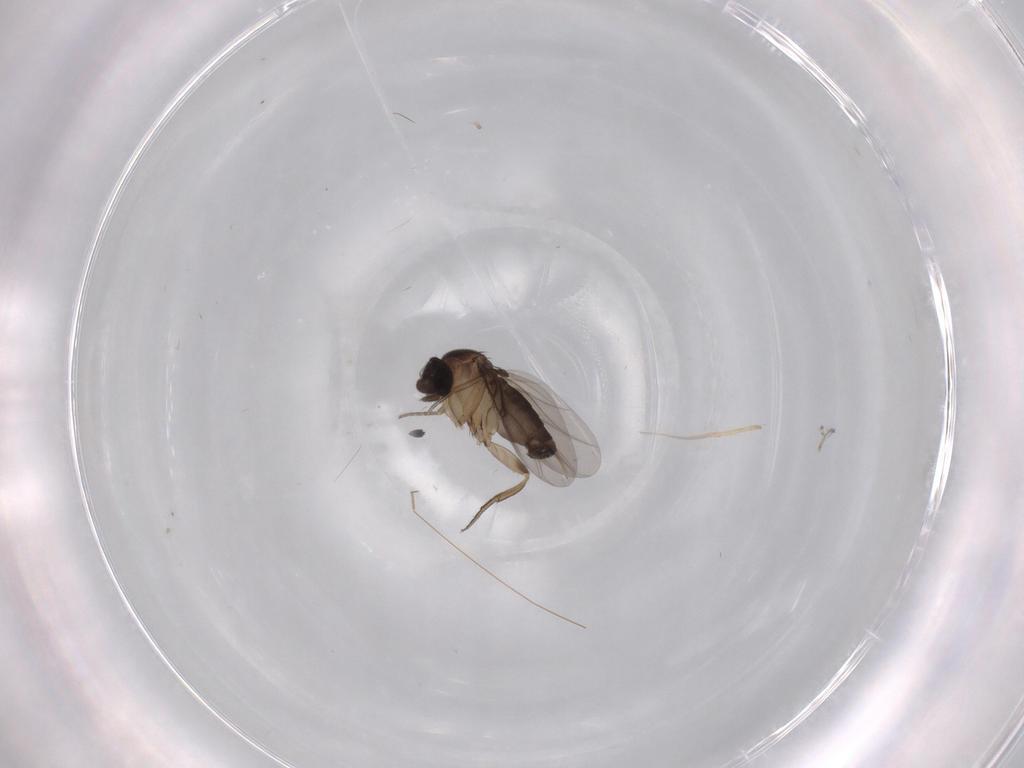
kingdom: Animalia
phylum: Arthropoda
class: Insecta
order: Diptera
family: Phoridae
